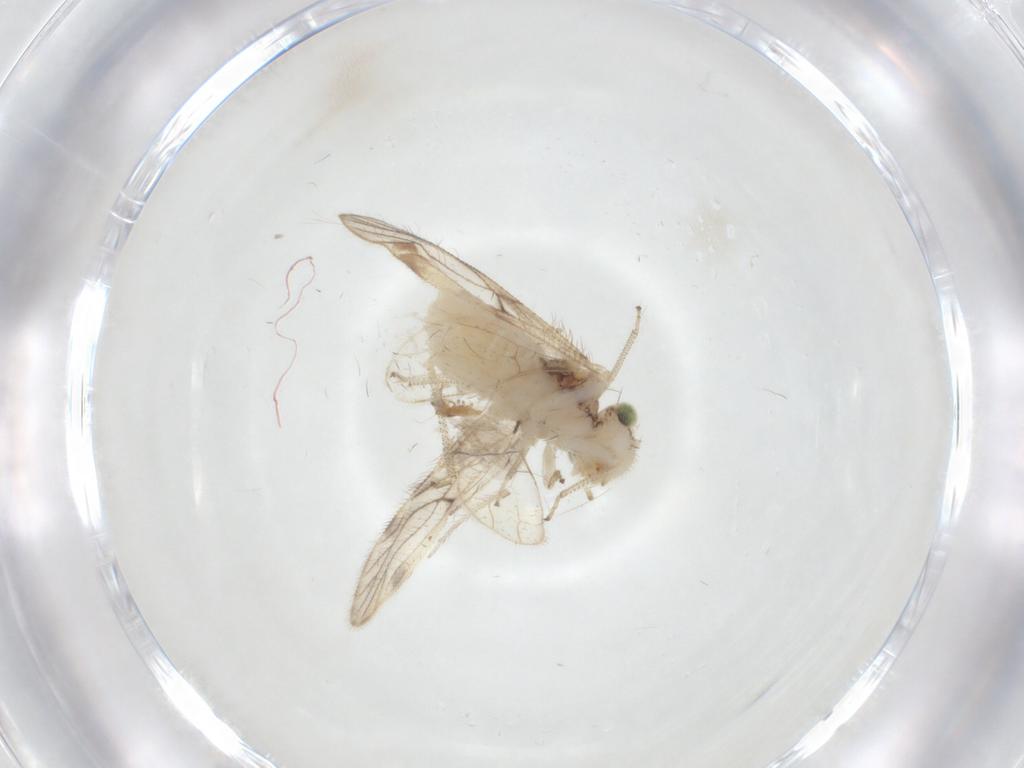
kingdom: Animalia
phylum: Arthropoda
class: Insecta
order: Psocodea
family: Pseudocaeciliidae
